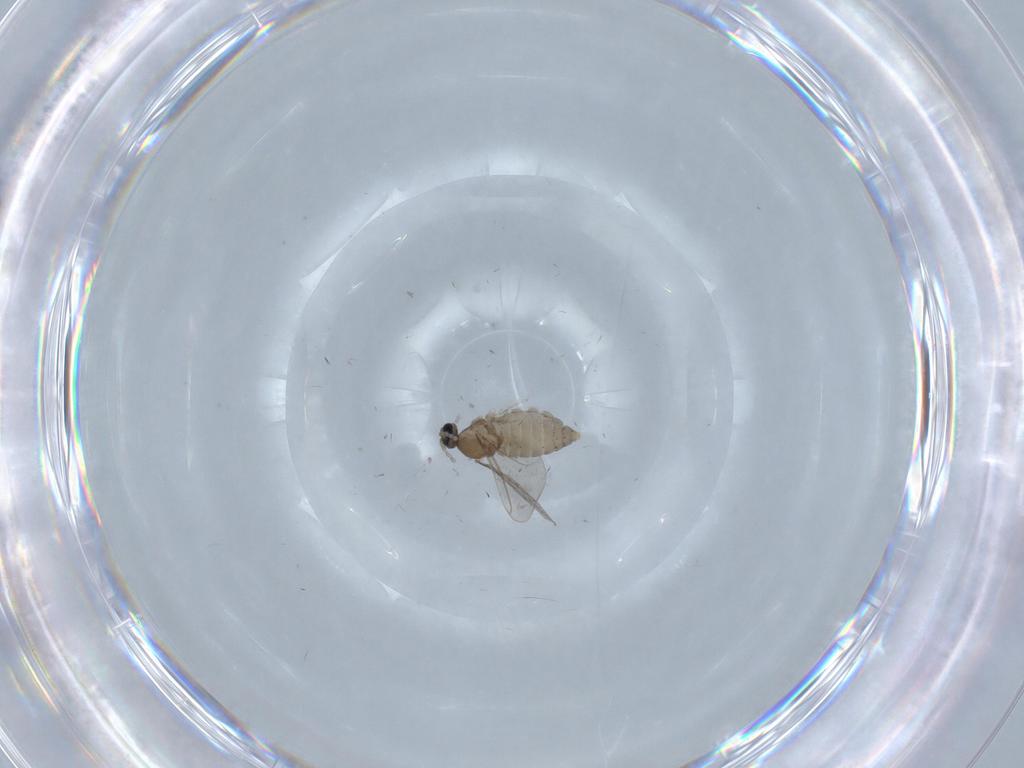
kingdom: Animalia
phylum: Arthropoda
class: Insecta
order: Diptera
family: Cecidomyiidae
